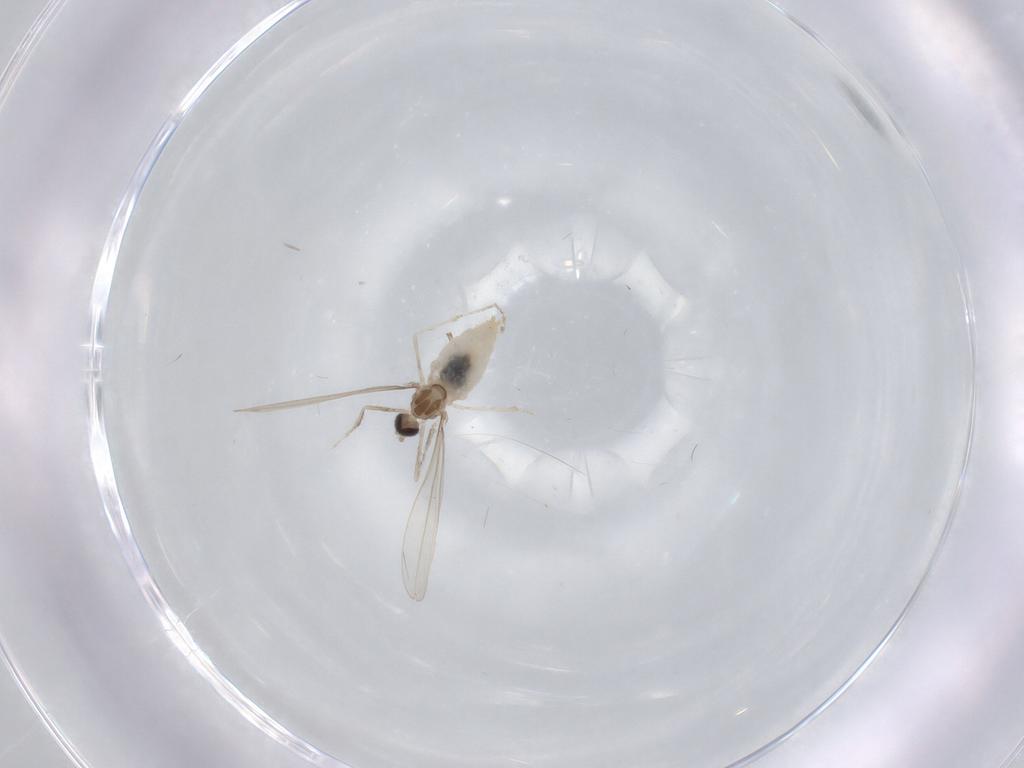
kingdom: Animalia
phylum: Arthropoda
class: Insecta
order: Diptera
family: Cecidomyiidae
